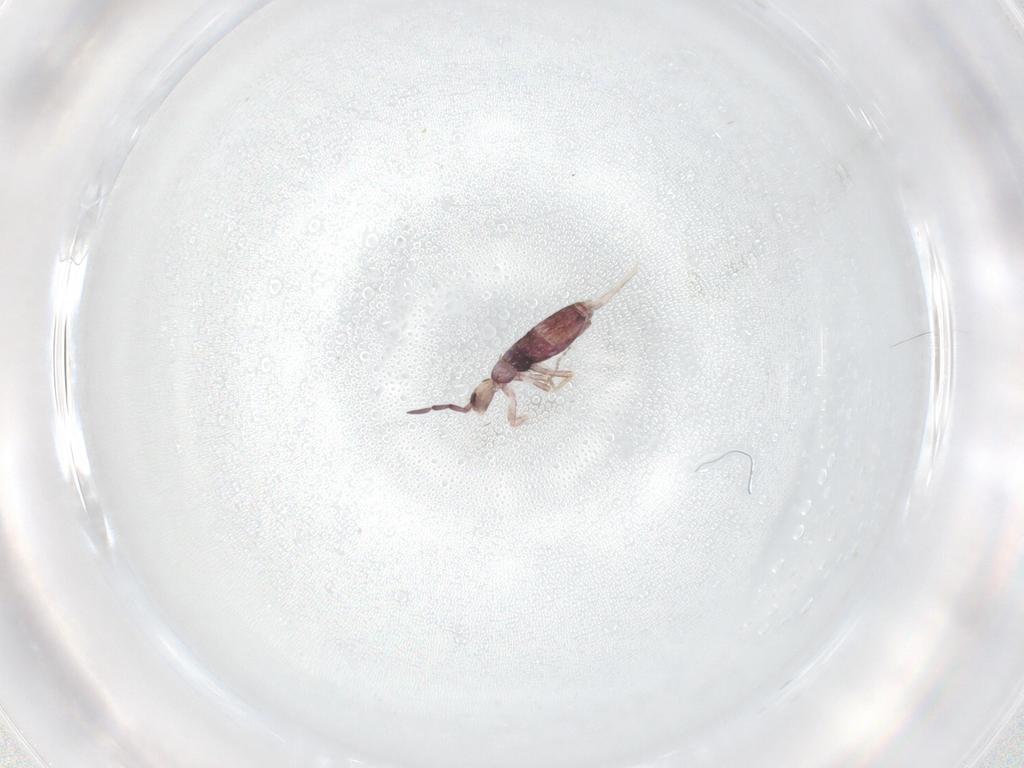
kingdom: Animalia
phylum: Arthropoda
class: Collembola
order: Entomobryomorpha
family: Entomobryidae
